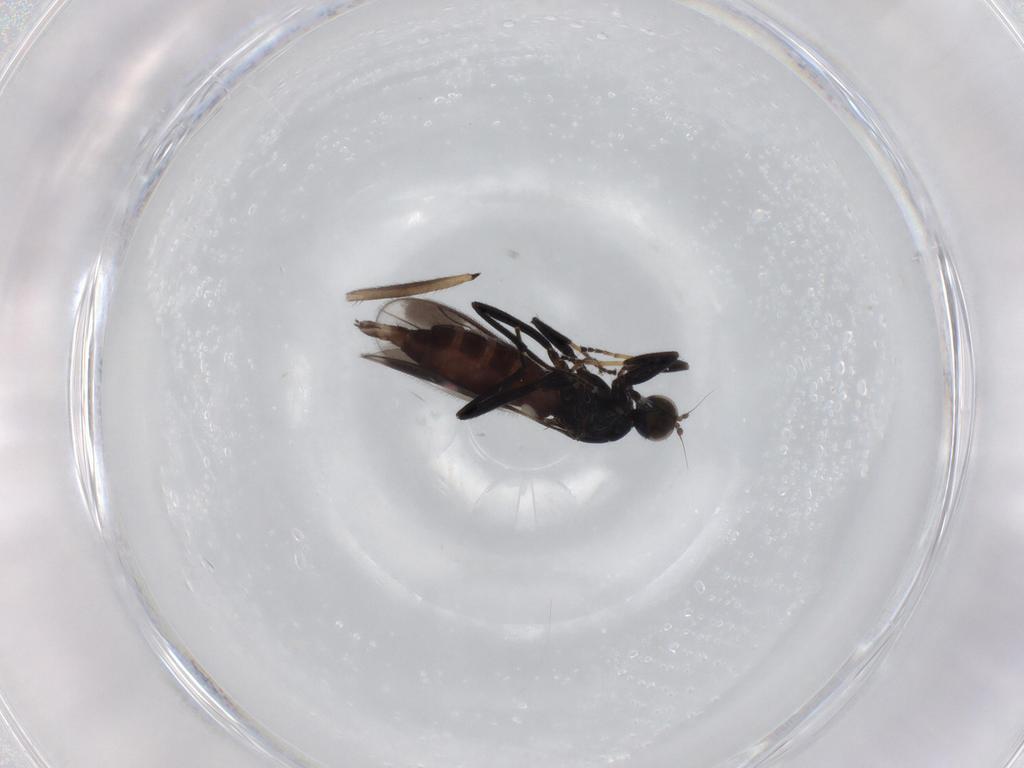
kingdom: Animalia
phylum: Arthropoda
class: Insecta
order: Diptera
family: Hybotidae
